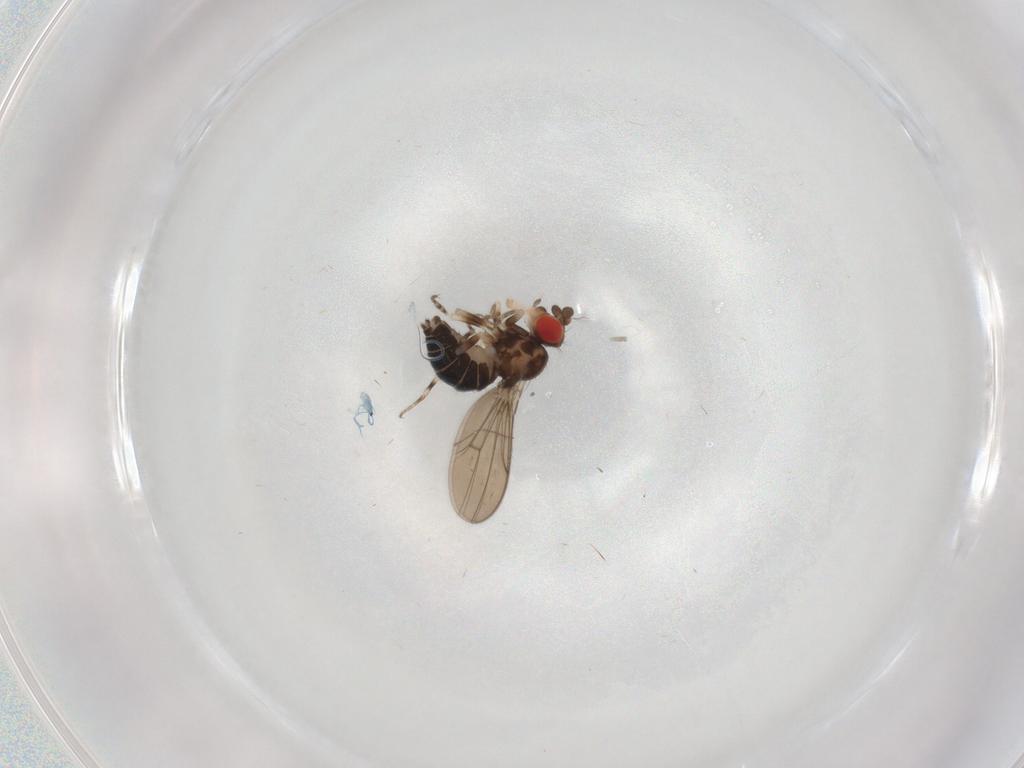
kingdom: Animalia
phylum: Arthropoda
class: Insecta
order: Diptera
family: Drosophilidae
